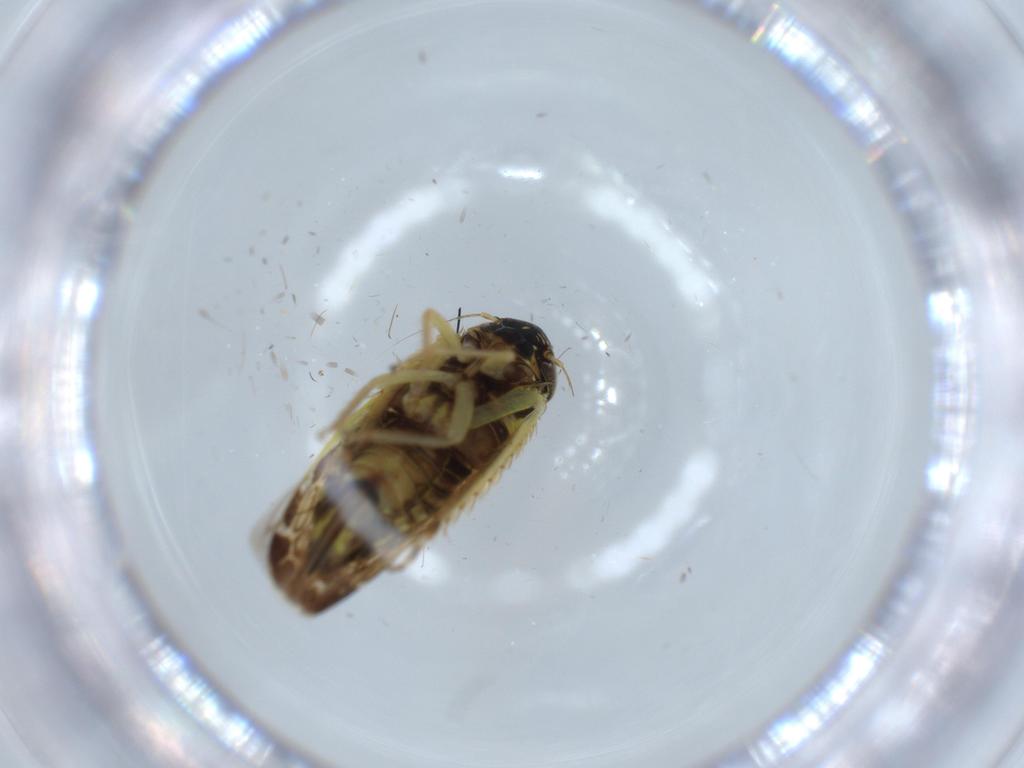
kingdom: Animalia
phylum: Arthropoda
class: Insecta
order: Hemiptera
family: Cicadellidae
